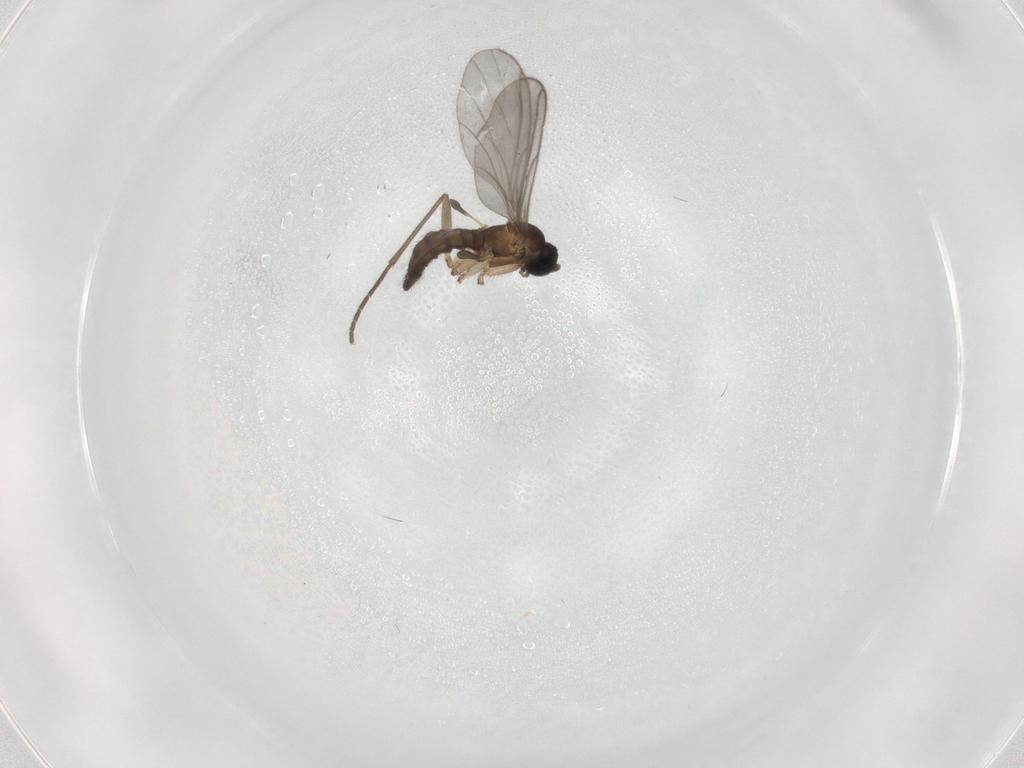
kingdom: Animalia
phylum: Arthropoda
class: Insecta
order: Diptera
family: Sciaridae
